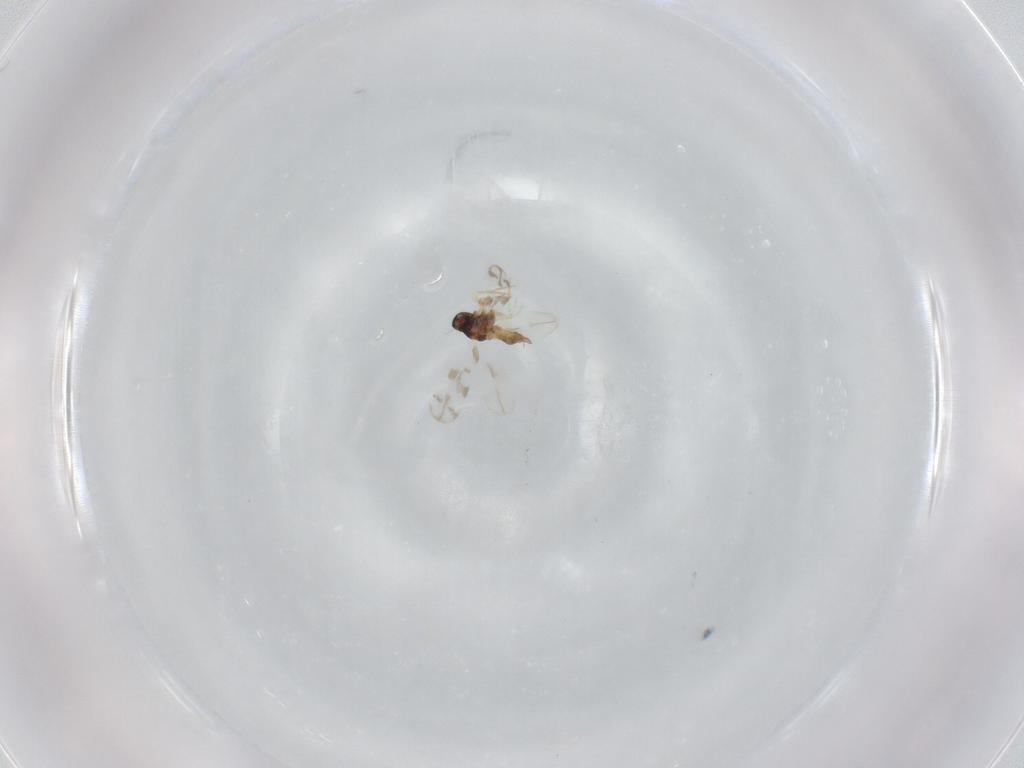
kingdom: Animalia
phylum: Arthropoda
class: Insecta
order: Hemiptera
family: Aleyrodidae
